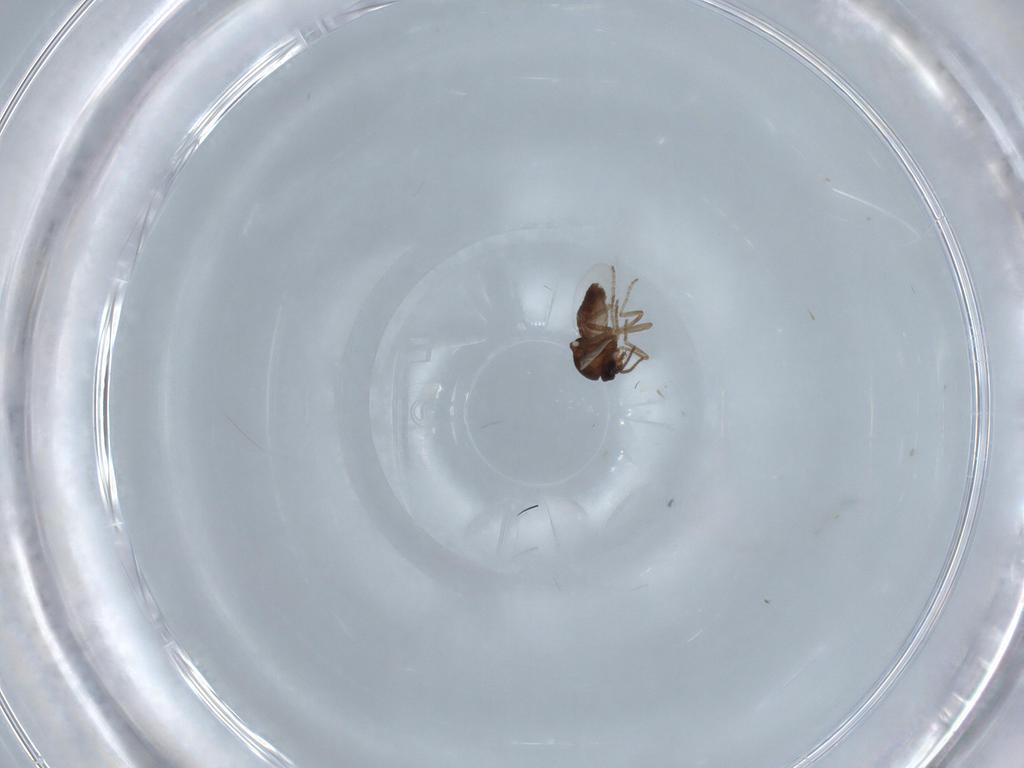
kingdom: Animalia
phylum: Arthropoda
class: Insecta
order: Diptera
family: Ceratopogonidae
